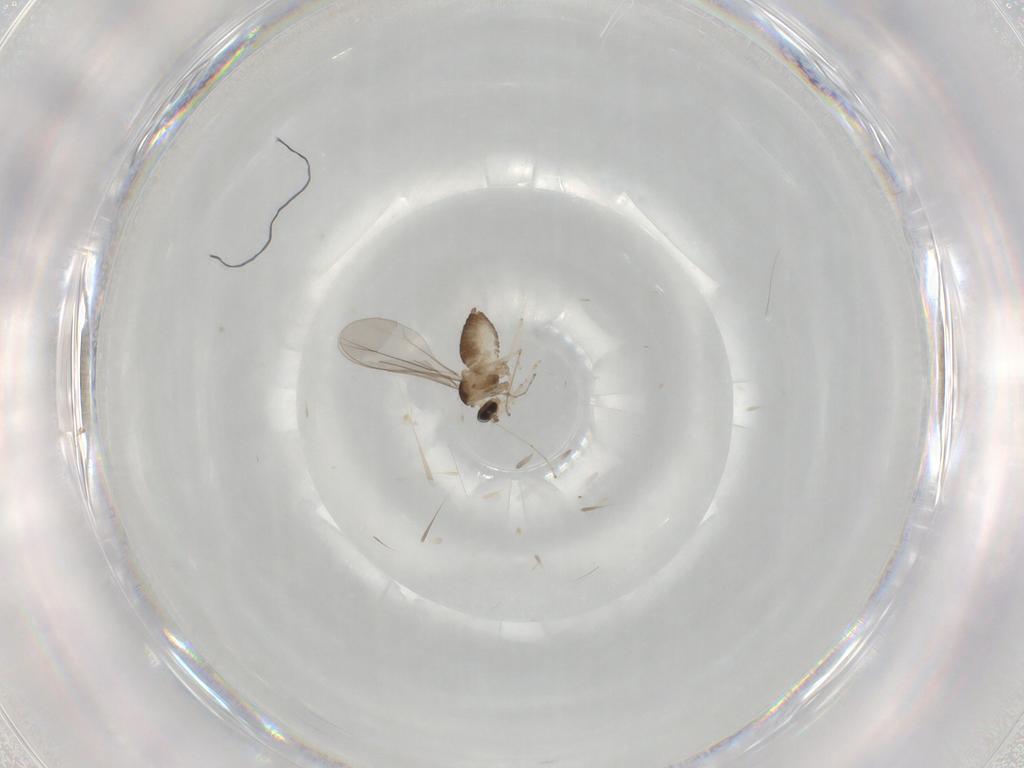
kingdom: Animalia
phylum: Arthropoda
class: Insecta
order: Diptera
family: Cecidomyiidae
